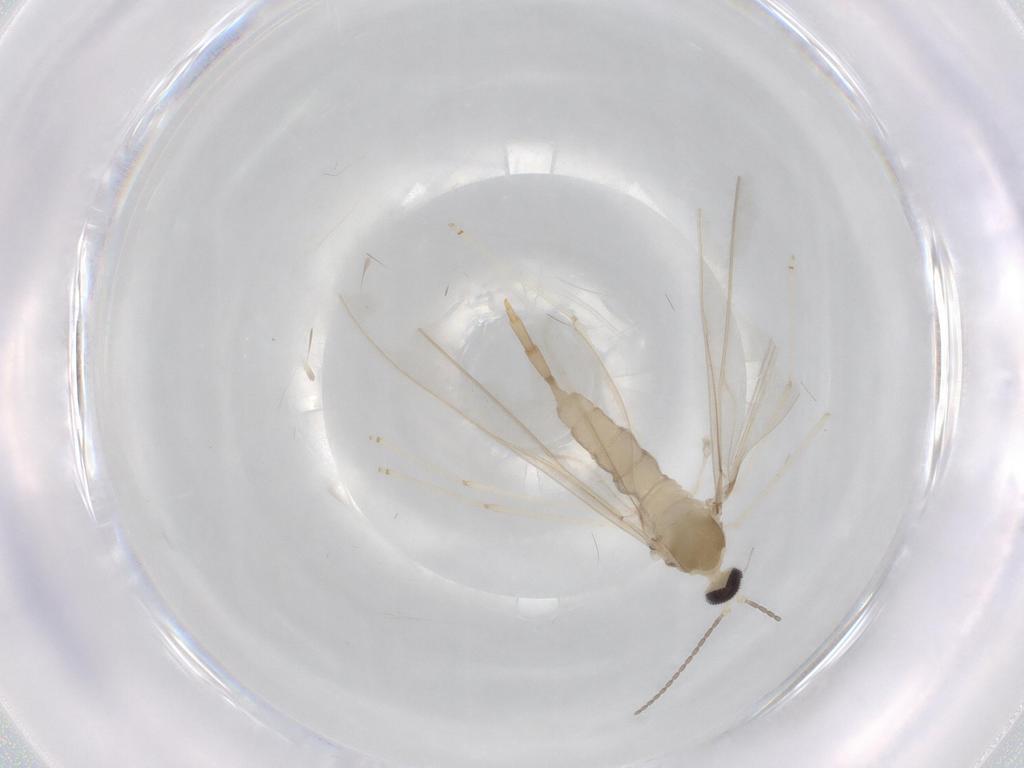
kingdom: Animalia
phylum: Arthropoda
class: Insecta
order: Diptera
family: Cecidomyiidae
